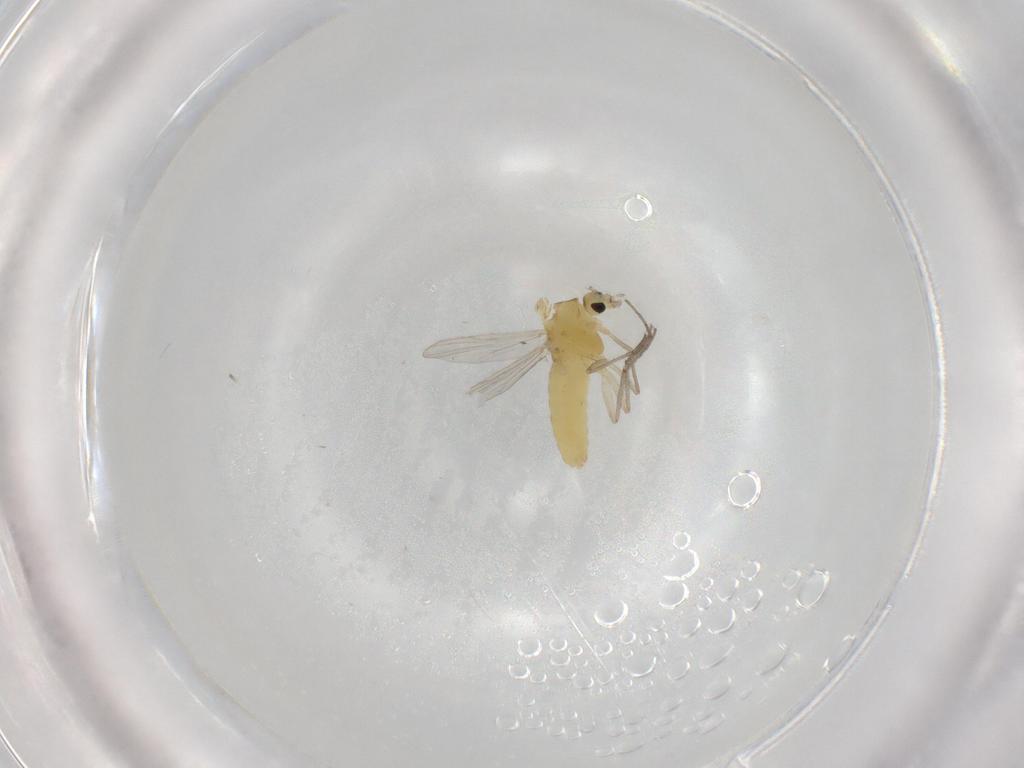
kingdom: Animalia
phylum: Arthropoda
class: Insecta
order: Diptera
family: Chironomidae
